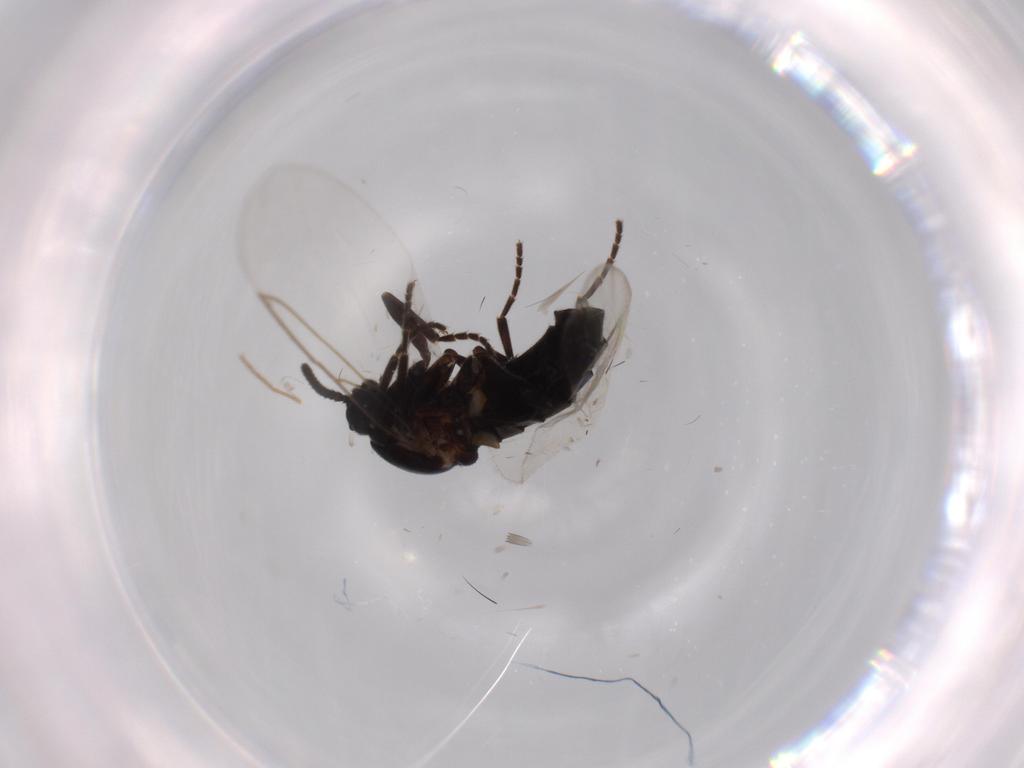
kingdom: Animalia
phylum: Arthropoda
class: Insecta
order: Diptera
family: Scatopsidae
